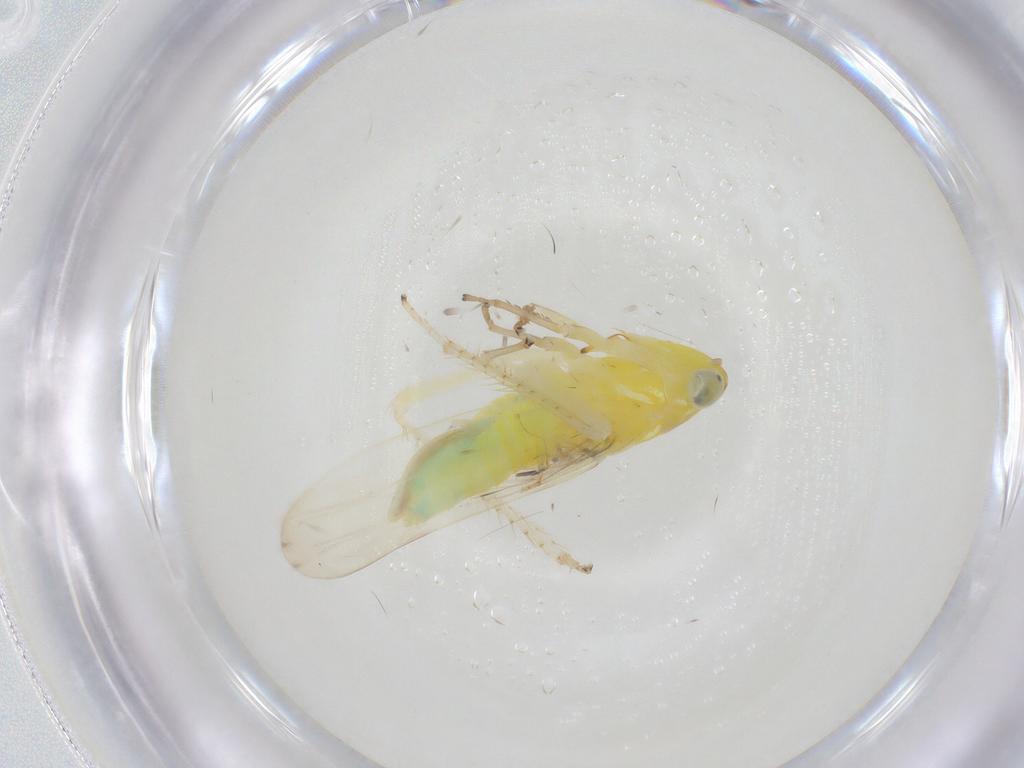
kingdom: Animalia
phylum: Arthropoda
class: Insecta
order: Hemiptera
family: Cicadellidae
